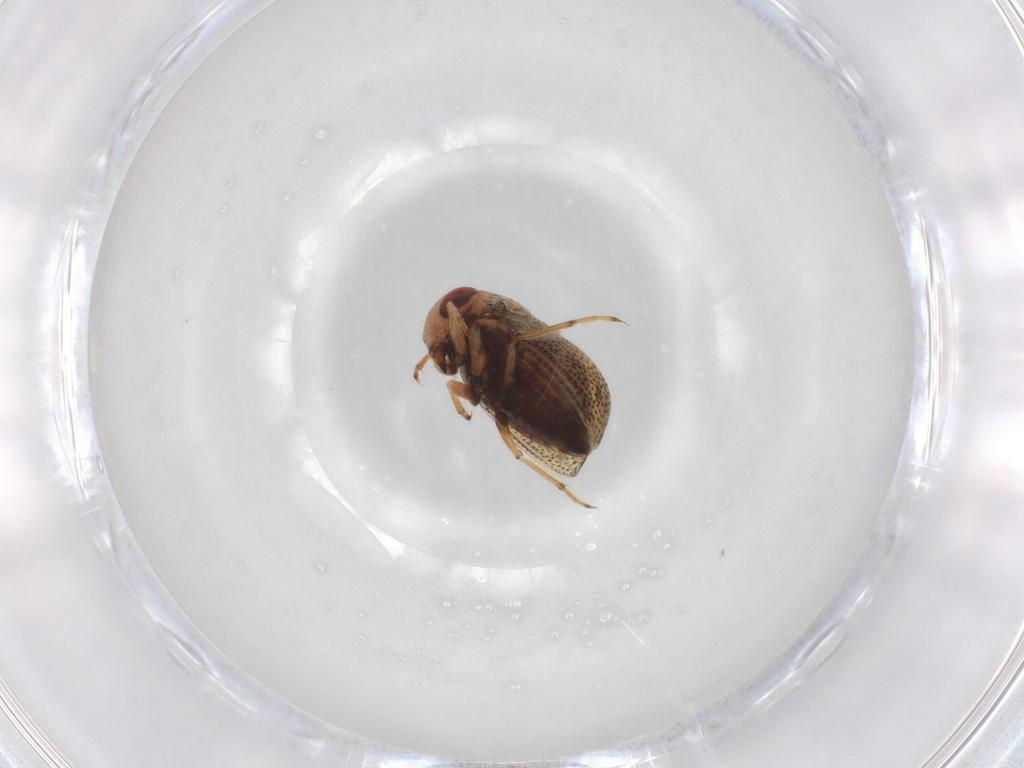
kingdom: Animalia
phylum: Arthropoda
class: Insecta
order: Hemiptera
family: Pleidae
